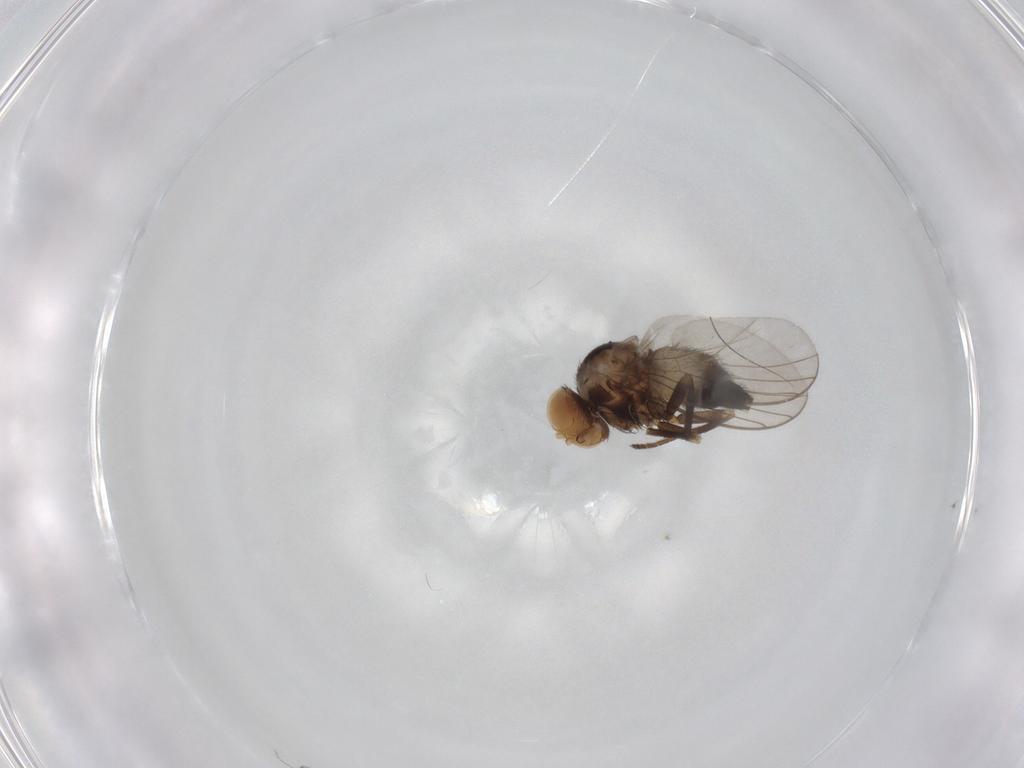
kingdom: Animalia
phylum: Arthropoda
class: Insecta
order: Diptera
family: Agromyzidae
